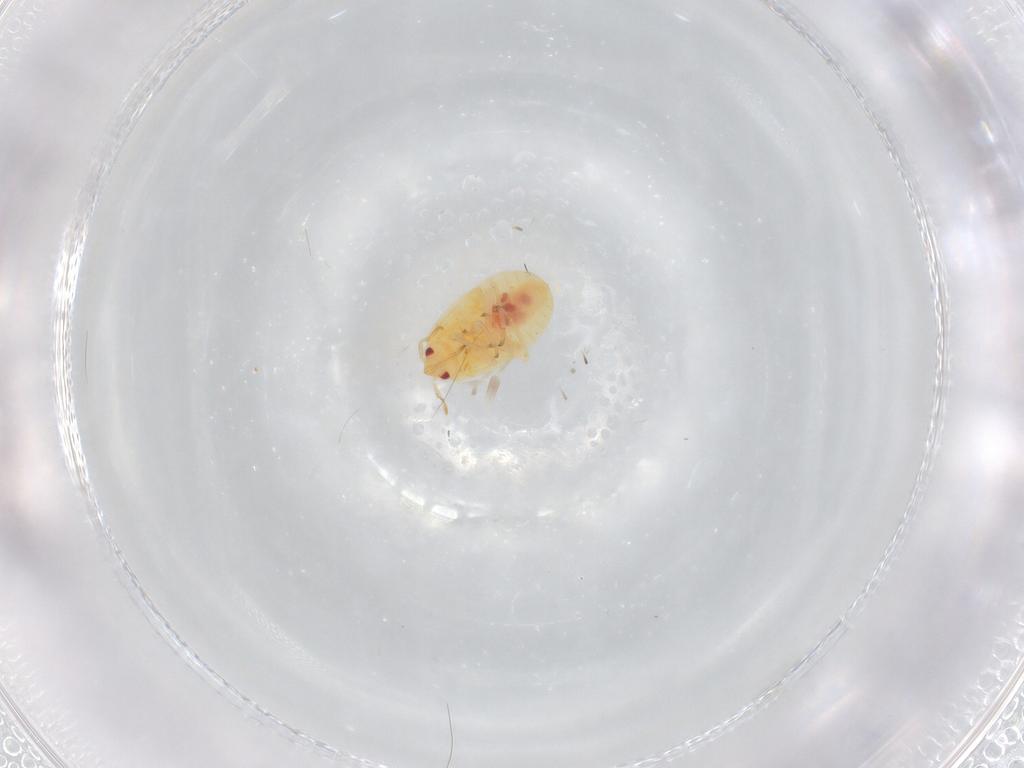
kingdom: Animalia
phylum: Arthropoda
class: Insecta
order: Hemiptera
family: Anthocoridae
